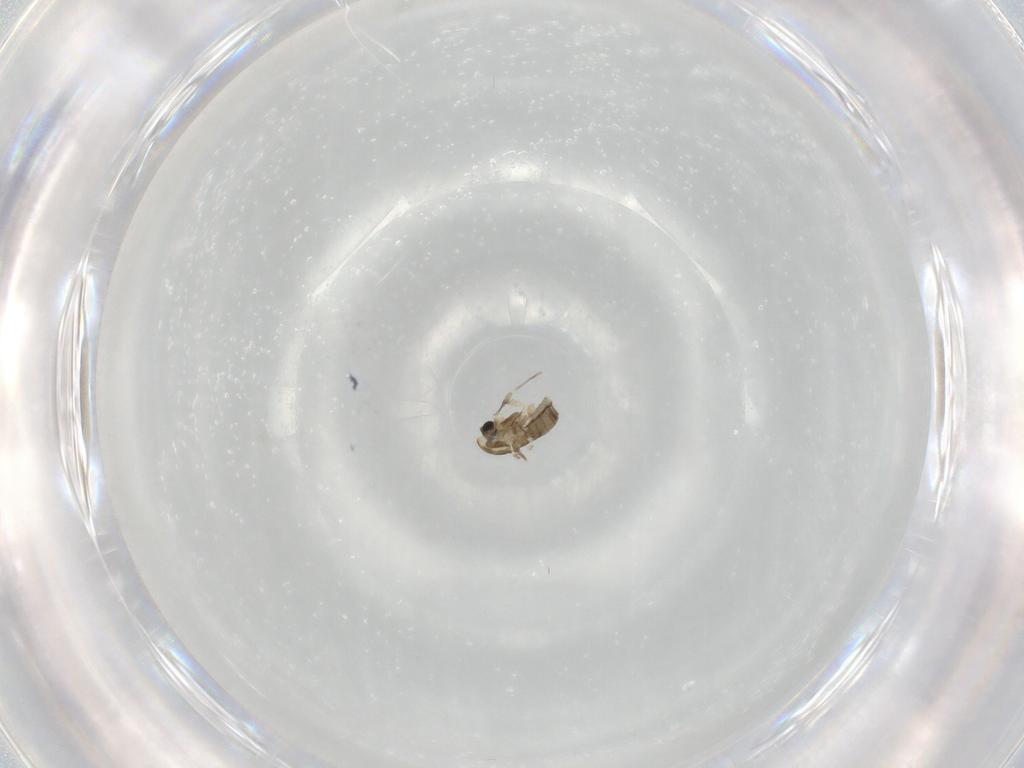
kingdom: Animalia
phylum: Arthropoda
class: Insecta
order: Diptera
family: Chironomidae
